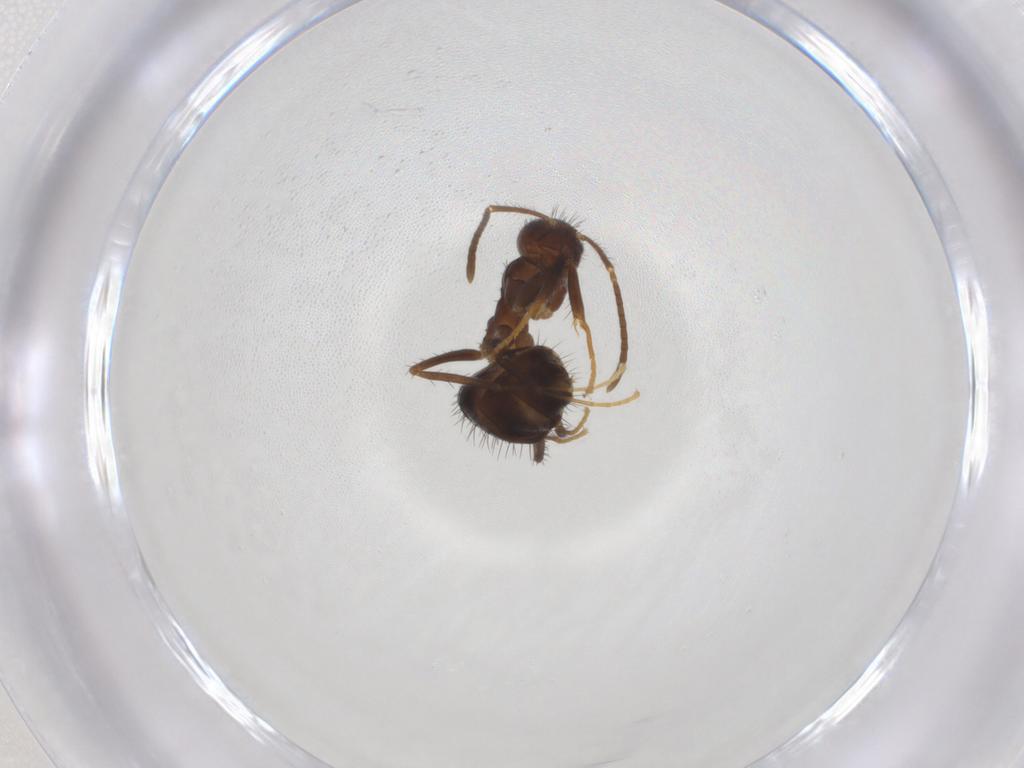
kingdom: Animalia
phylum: Arthropoda
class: Insecta
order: Hymenoptera
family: Formicidae
